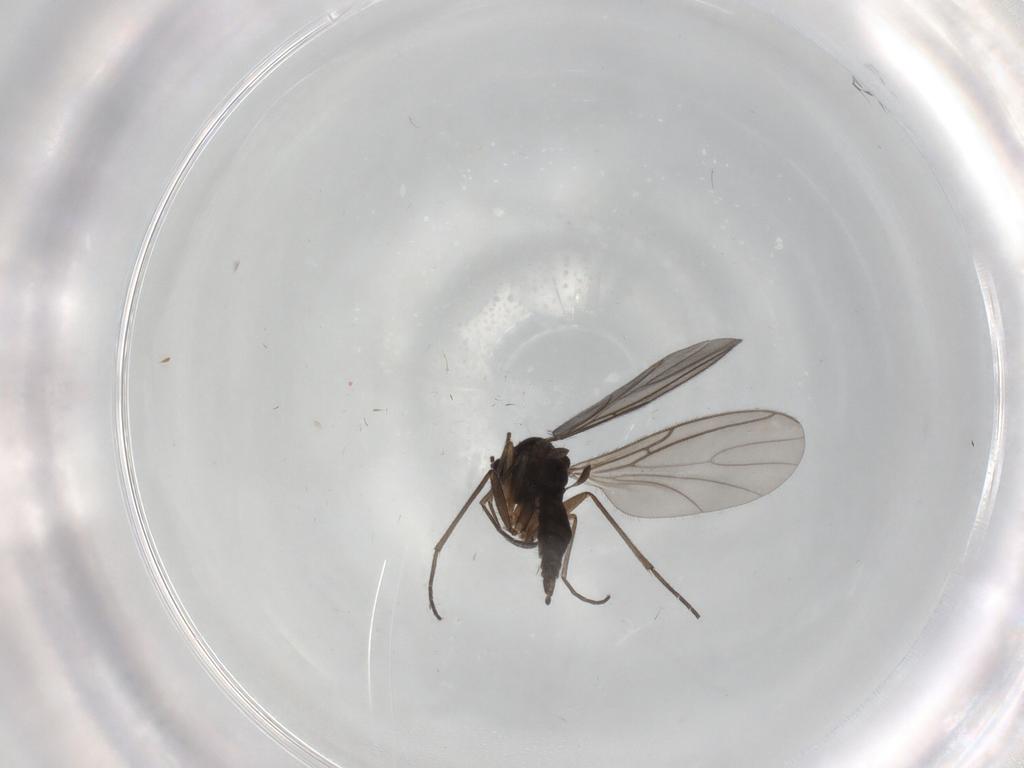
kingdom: Animalia
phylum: Arthropoda
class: Insecta
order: Diptera
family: Sciaridae
